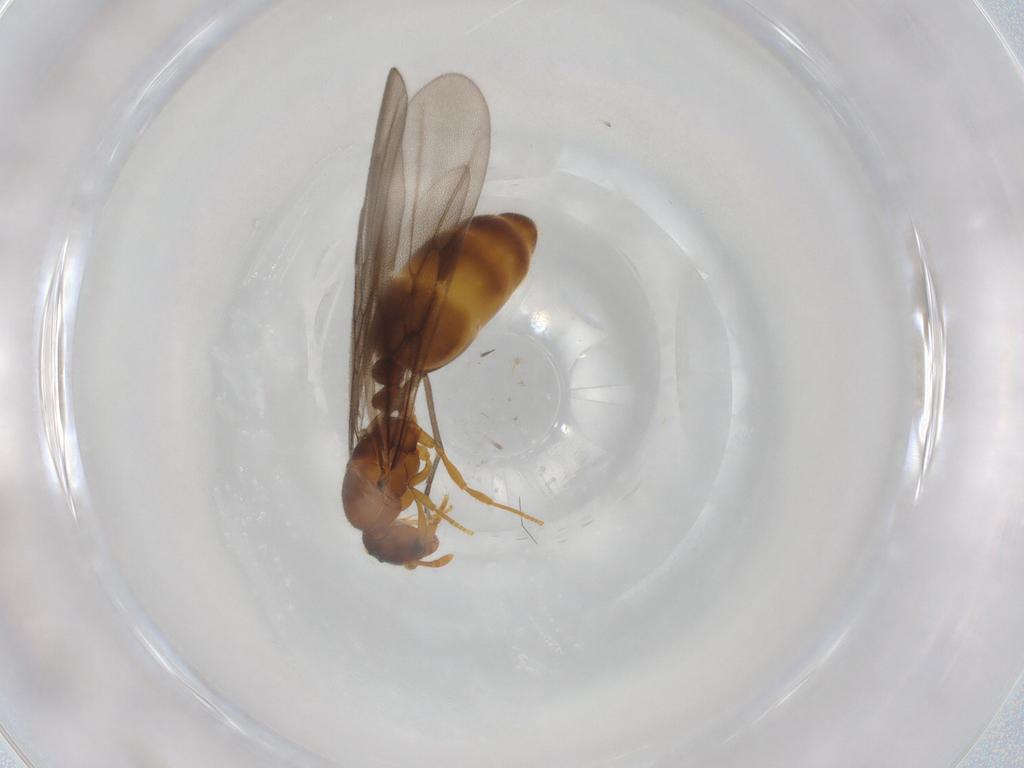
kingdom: Animalia
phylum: Arthropoda
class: Insecta
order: Hymenoptera
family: Formicidae
